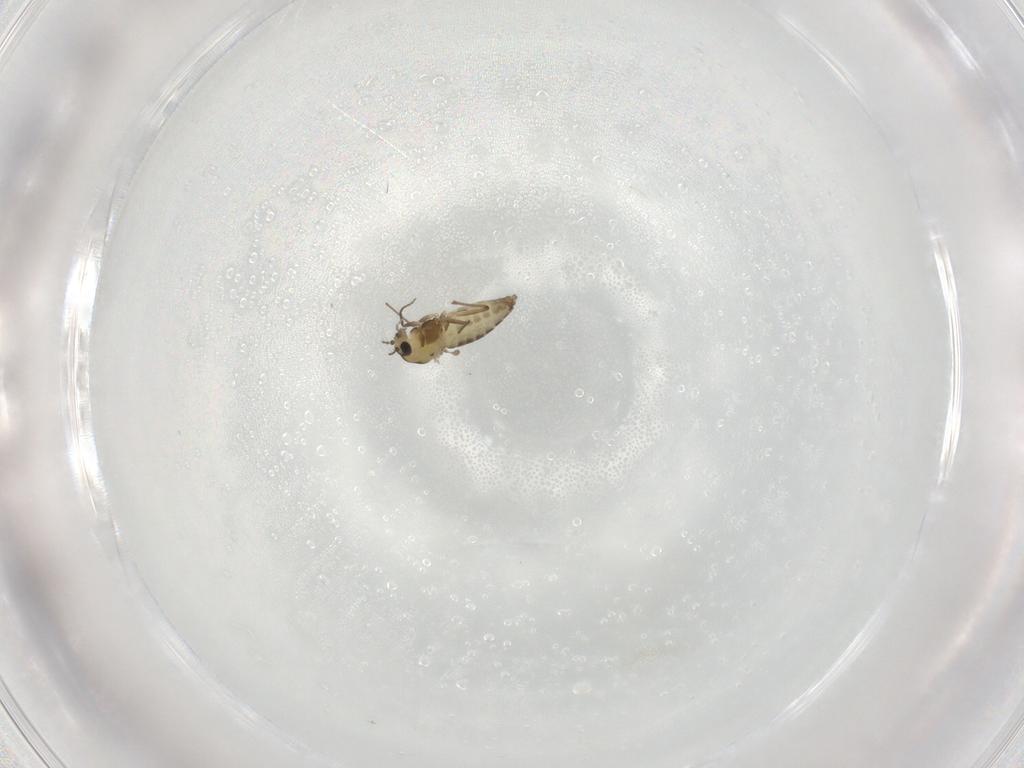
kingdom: Animalia
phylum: Arthropoda
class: Insecta
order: Diptera
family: Chironomidae
